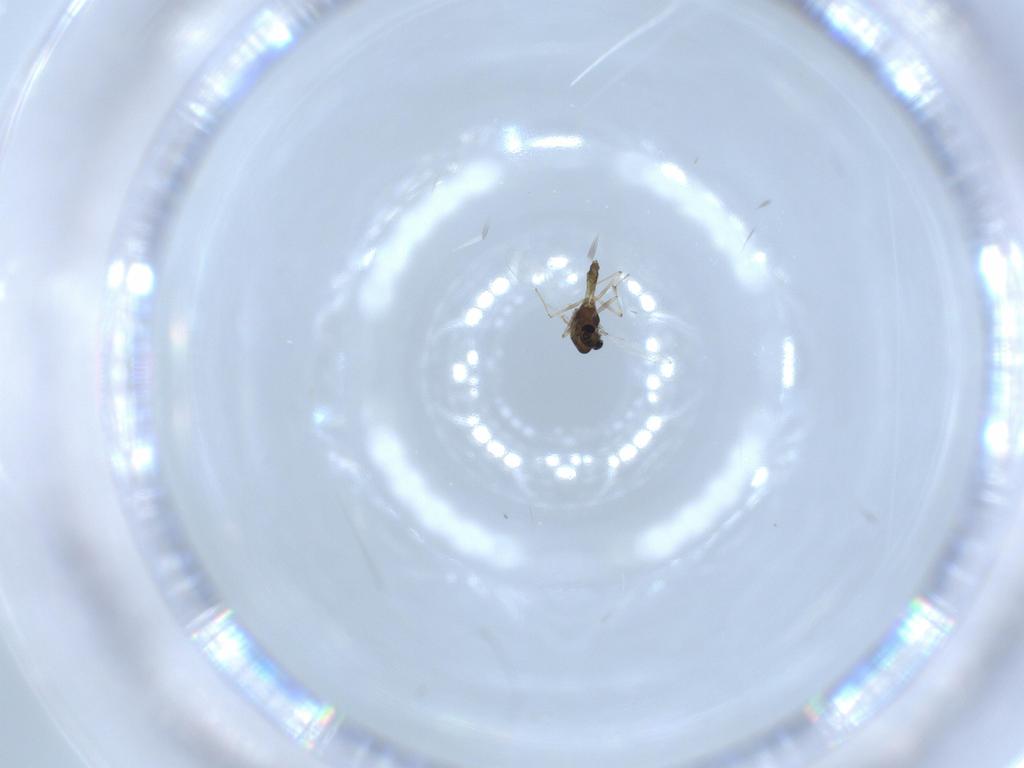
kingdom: Animalia
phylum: Arthropoda
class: Insecta
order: Diptera
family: Chironomidae
